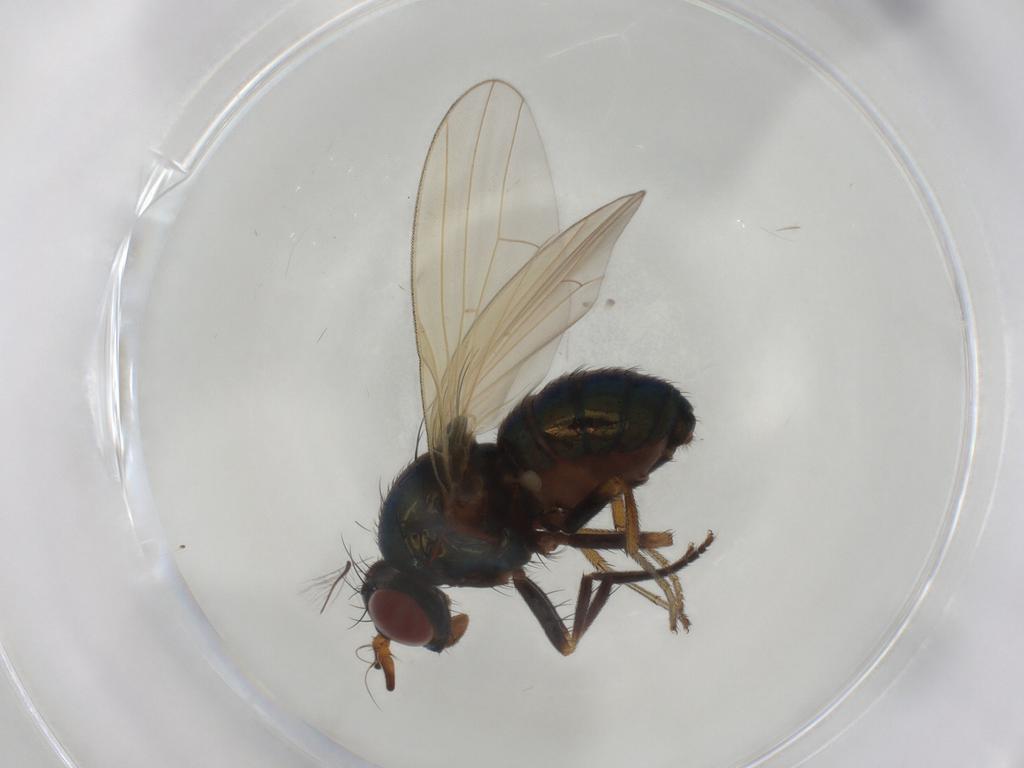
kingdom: Animalia
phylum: Arthropoda
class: Insecta
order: Diptera
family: Lauxaniidae
